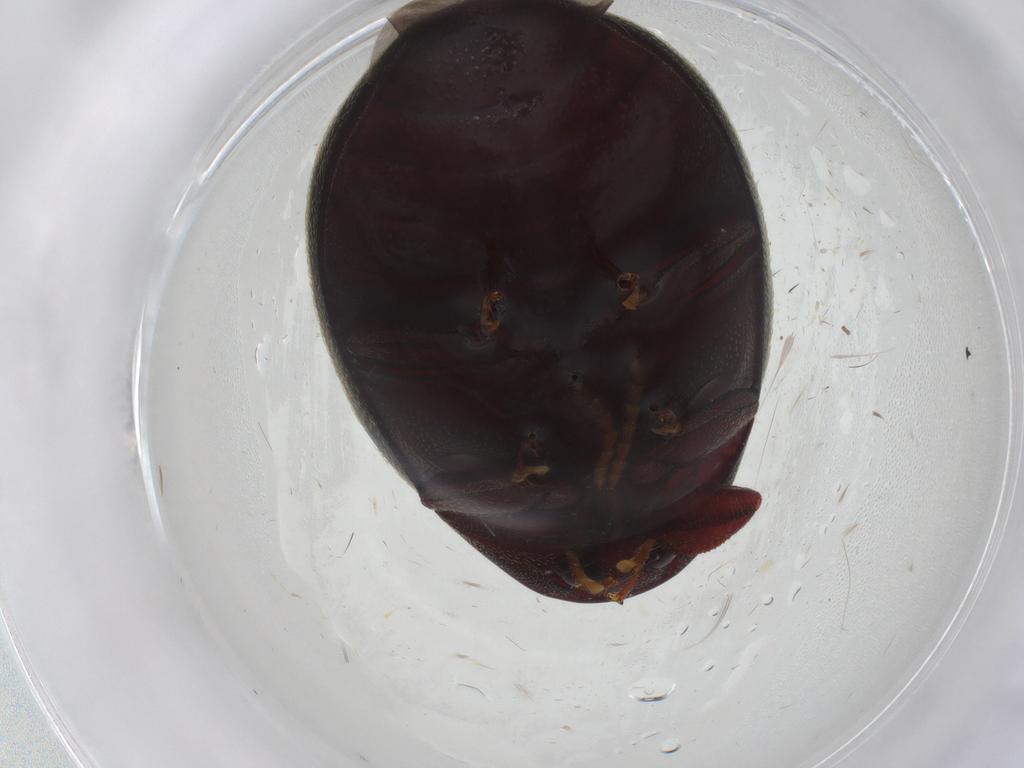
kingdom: Animalia
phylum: Arthropoda
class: Insecta
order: Coleoptera
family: Chelonariidae
